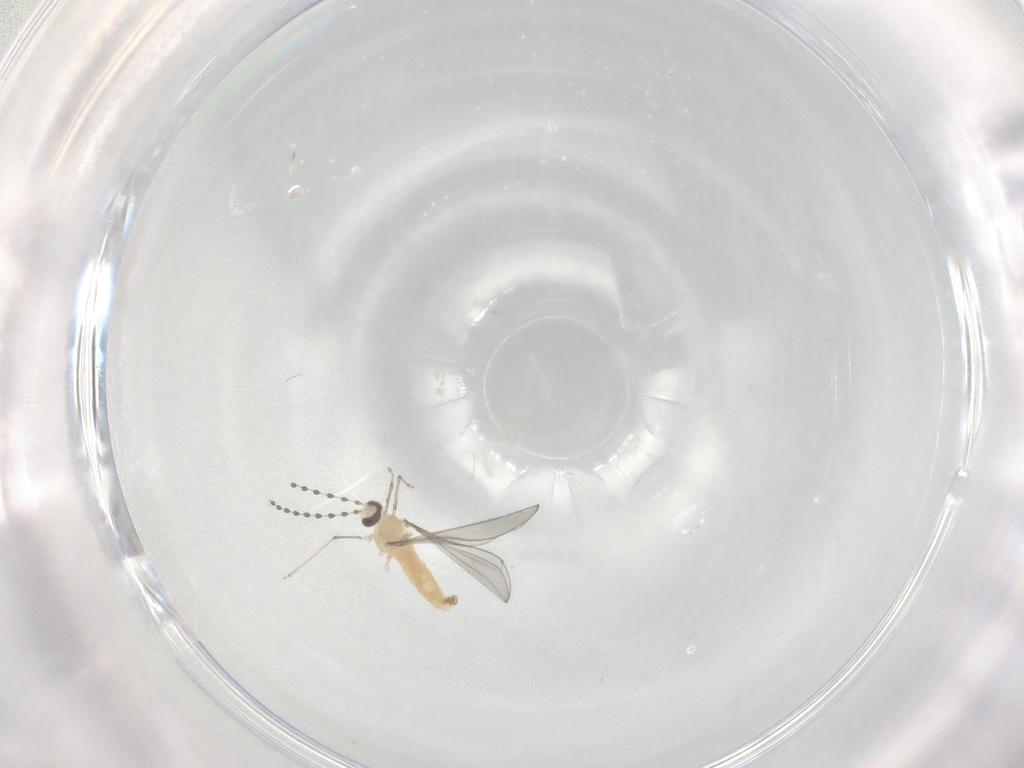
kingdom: Animalia
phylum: Arthropoda
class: Insecta
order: Diptera
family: Cecidomyiidae
